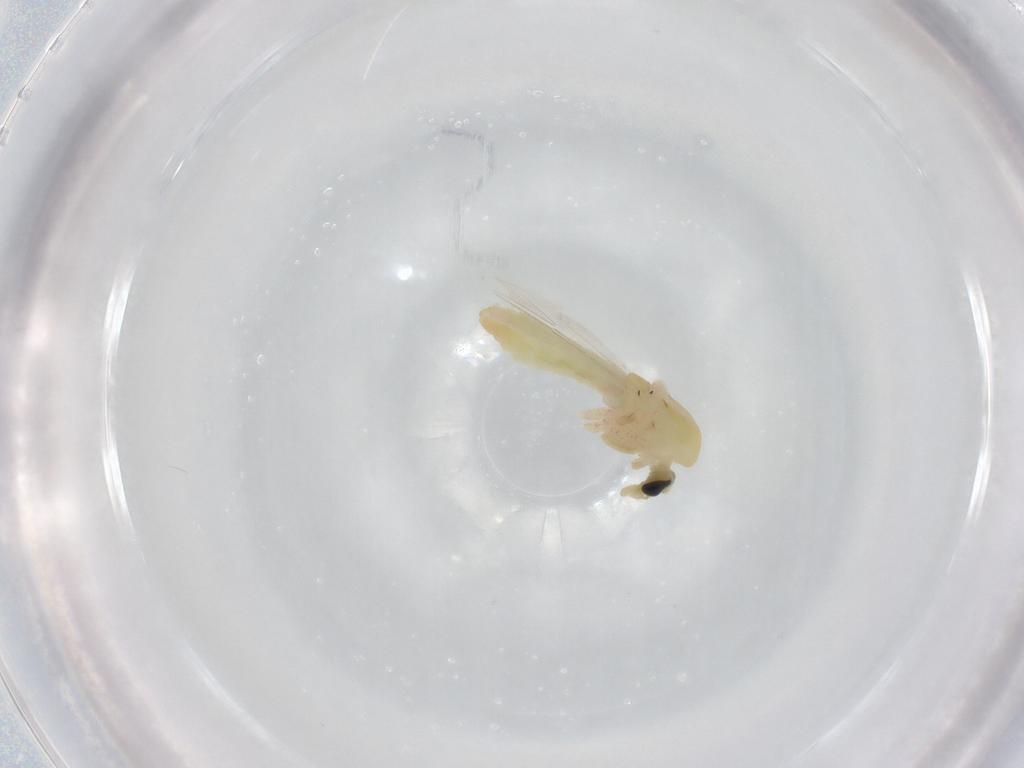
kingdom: Animalia
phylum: Arthropoda
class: Insecta
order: Diptera
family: Chironomidae
